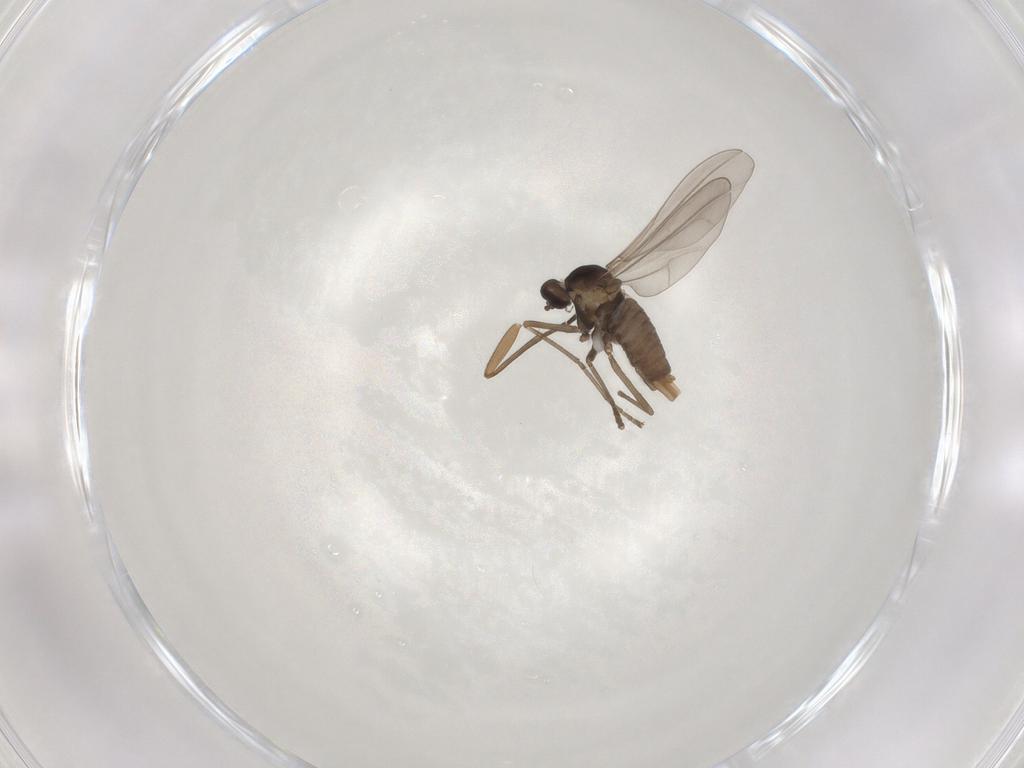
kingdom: Animalia
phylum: Arthropoda
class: Insecta
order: Diptera
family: Cecidomyiidae
